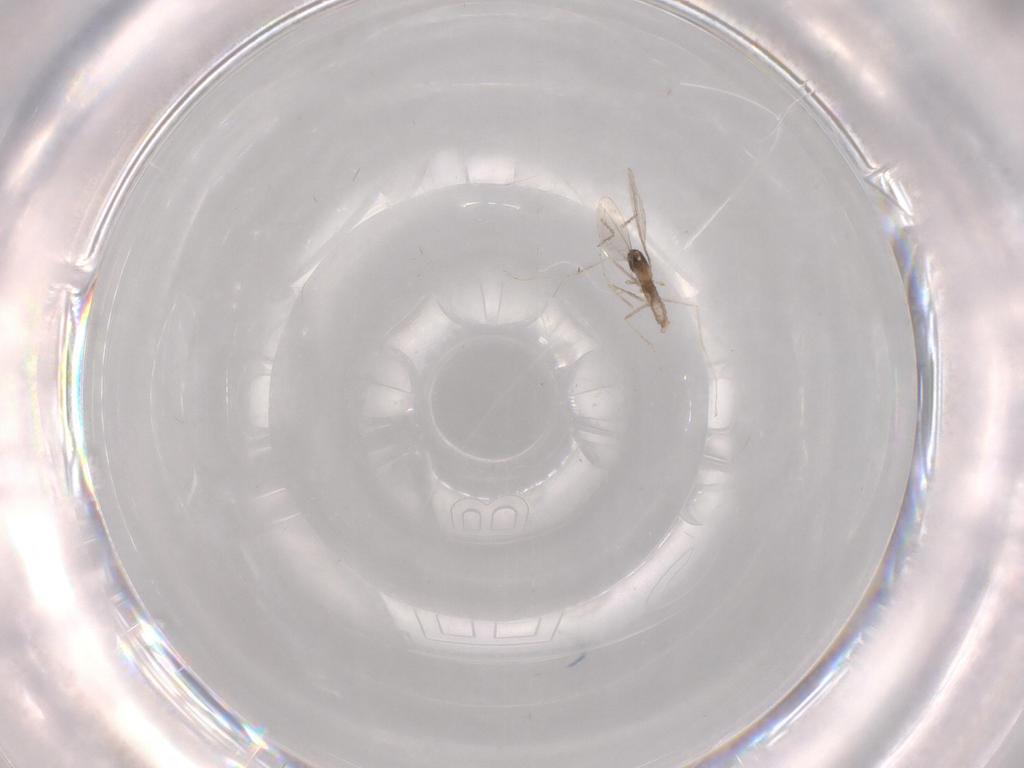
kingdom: Animalia
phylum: Arthropoda
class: Insecta
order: Diptera
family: Cecidomyiidae
